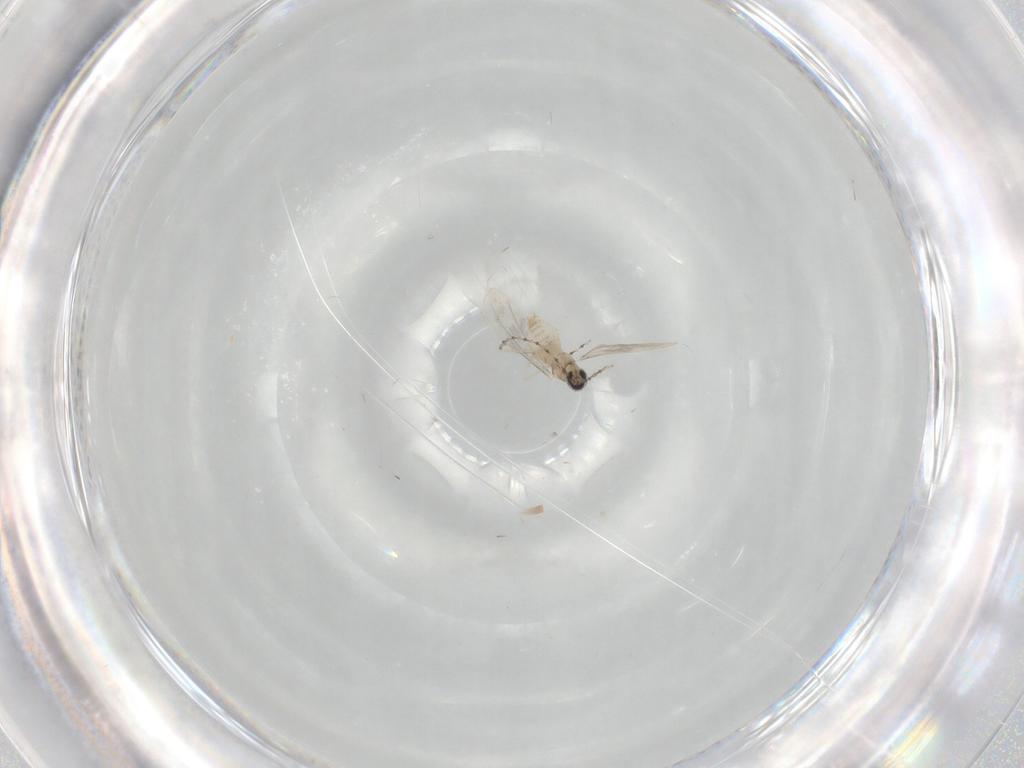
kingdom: Animalia
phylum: Arthropoda
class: Insecta
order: Diptera
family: Cecidomyiidae
